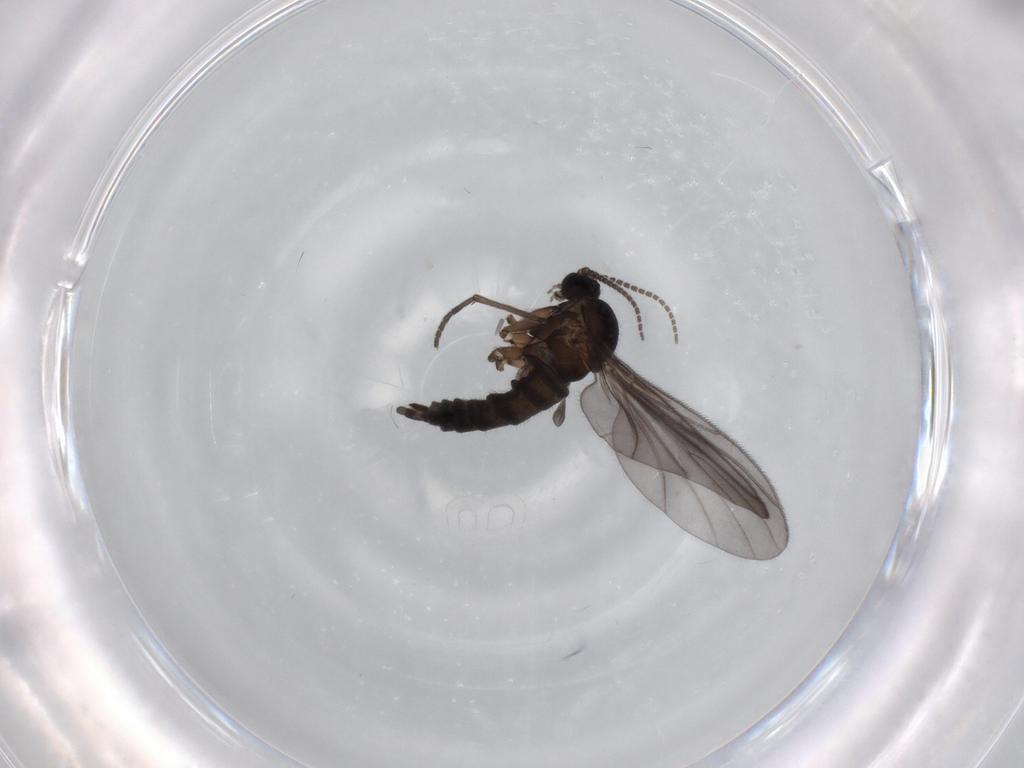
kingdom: Animalia
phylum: Arthropoda
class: Insecta
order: Diptera
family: Sciaridae
